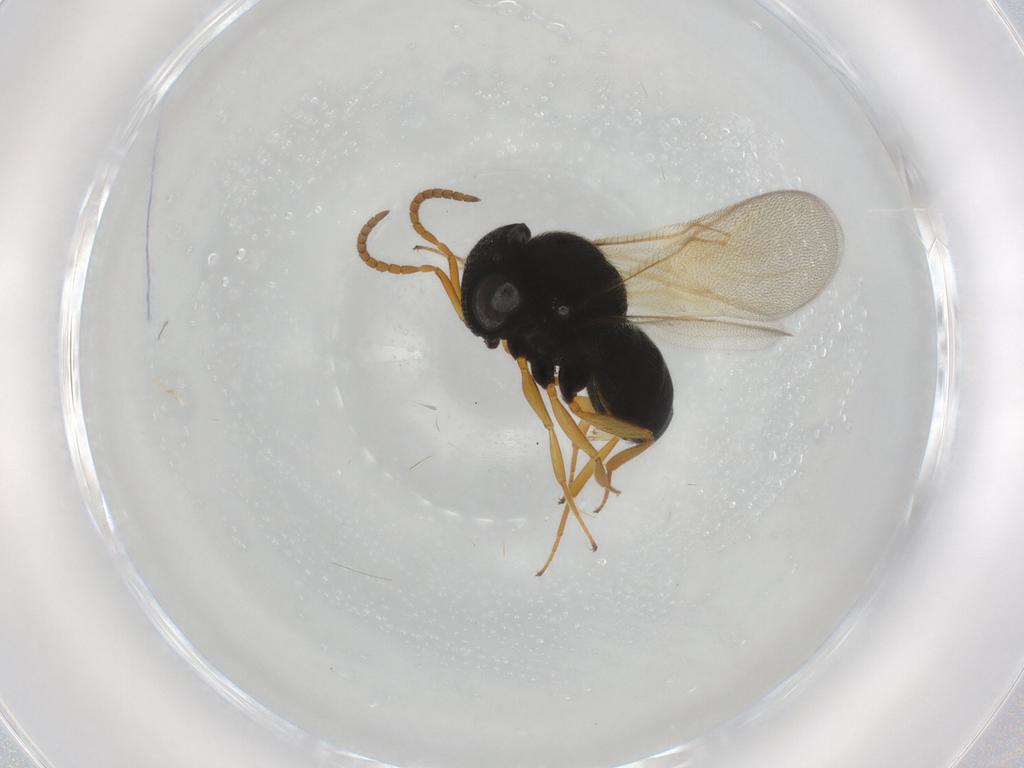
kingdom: Animalia
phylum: Arthropoda
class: Insecta
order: Hymenoptera
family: Scelionidae
